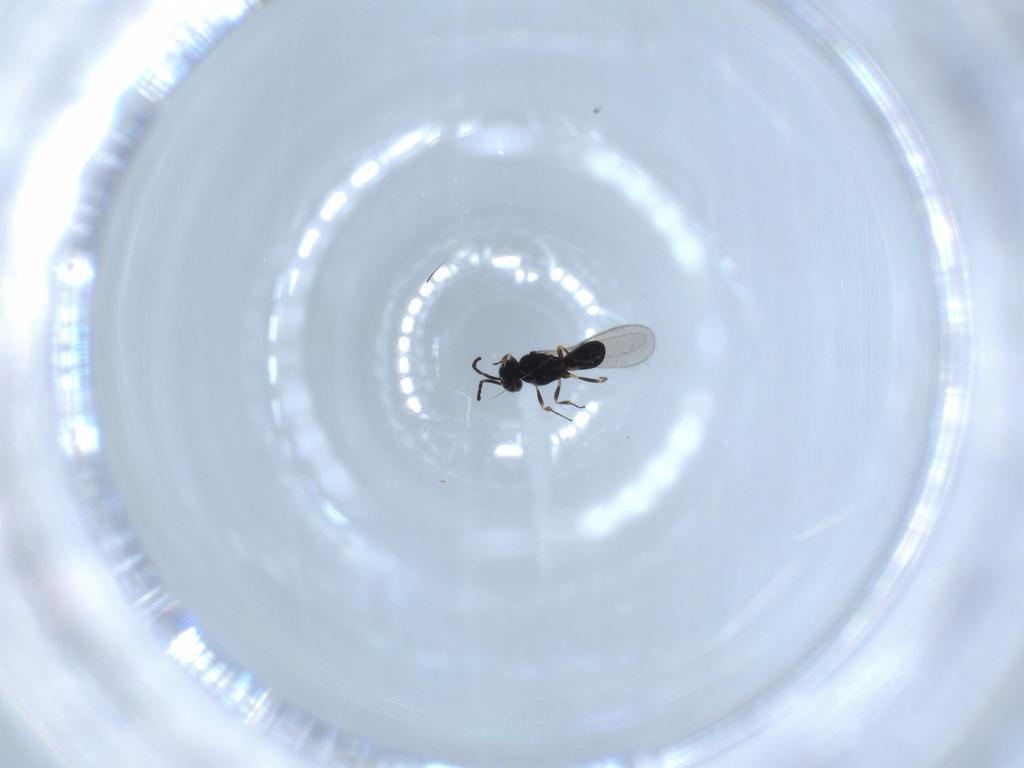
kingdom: Animalia
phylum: Arthropoda
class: Insecta
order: Hymenoptera
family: Scelionidae
